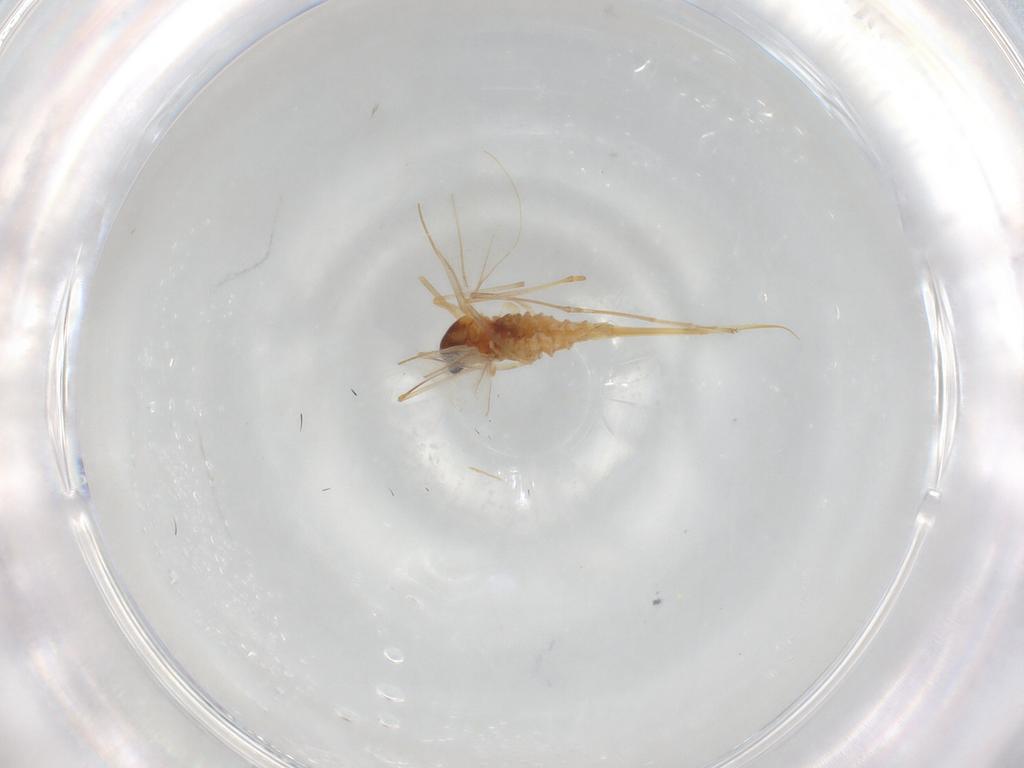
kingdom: Animalia
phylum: Arthropoda
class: Insecta
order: Diptera
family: Cecidomyiidae
